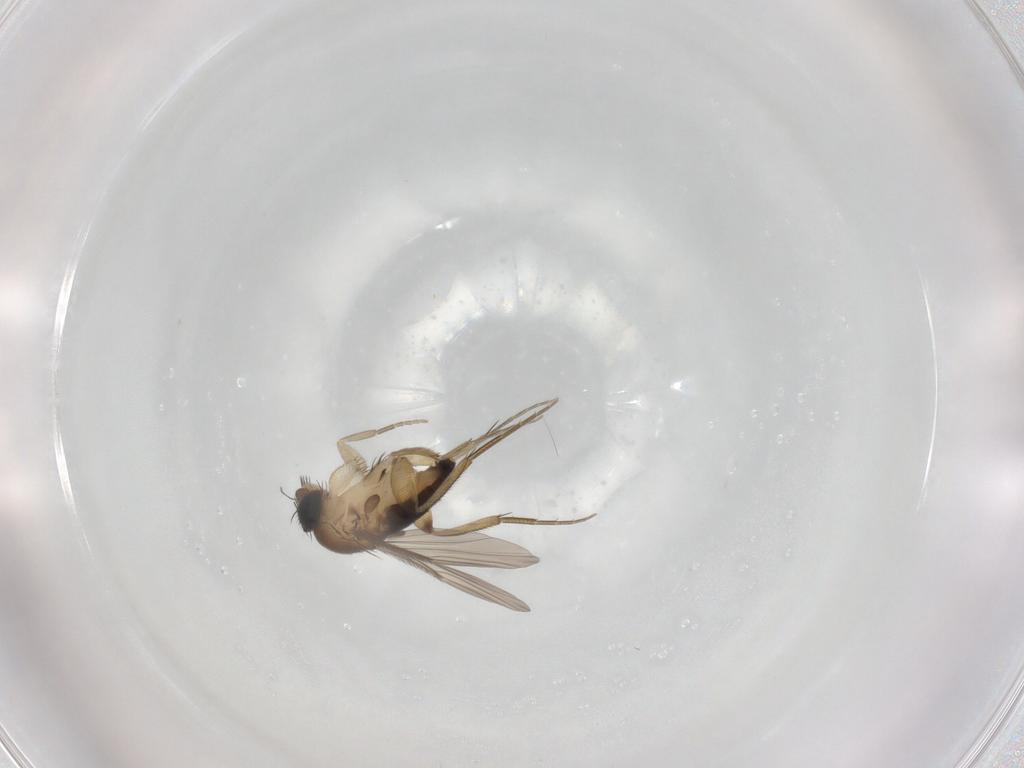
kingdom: Animalia
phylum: Arthropoda
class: Insecta
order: Diptera
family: Phoridae
